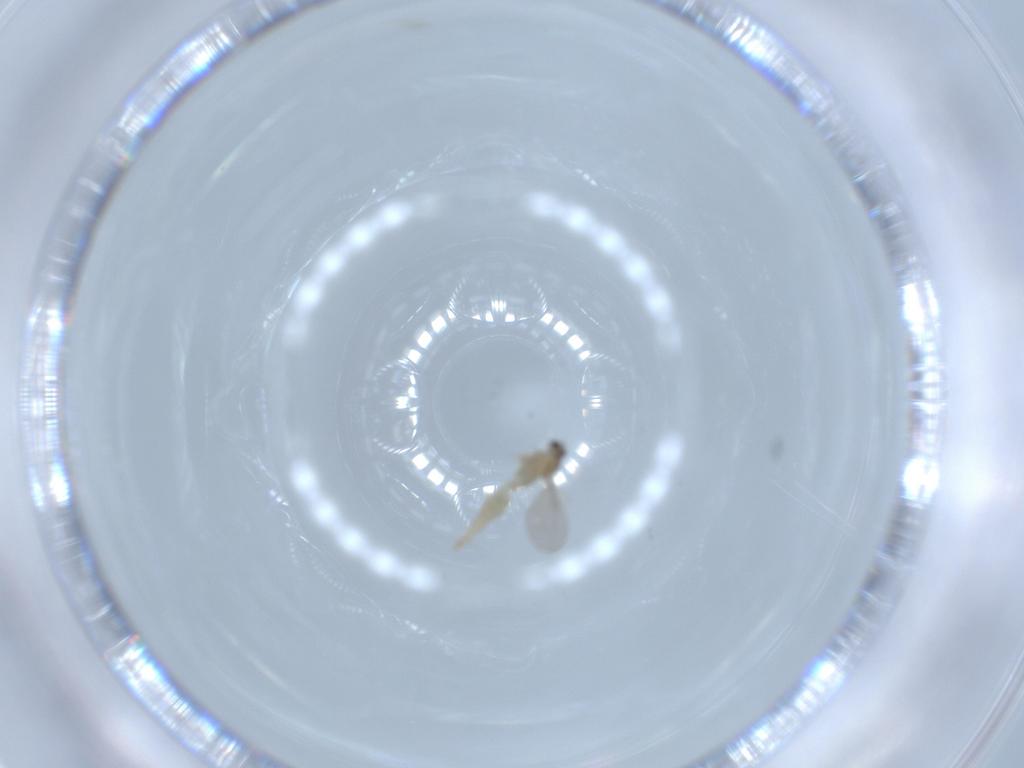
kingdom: Animalia
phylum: Arthropoda
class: Insecta
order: Diptera
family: Cecidomyiidae
